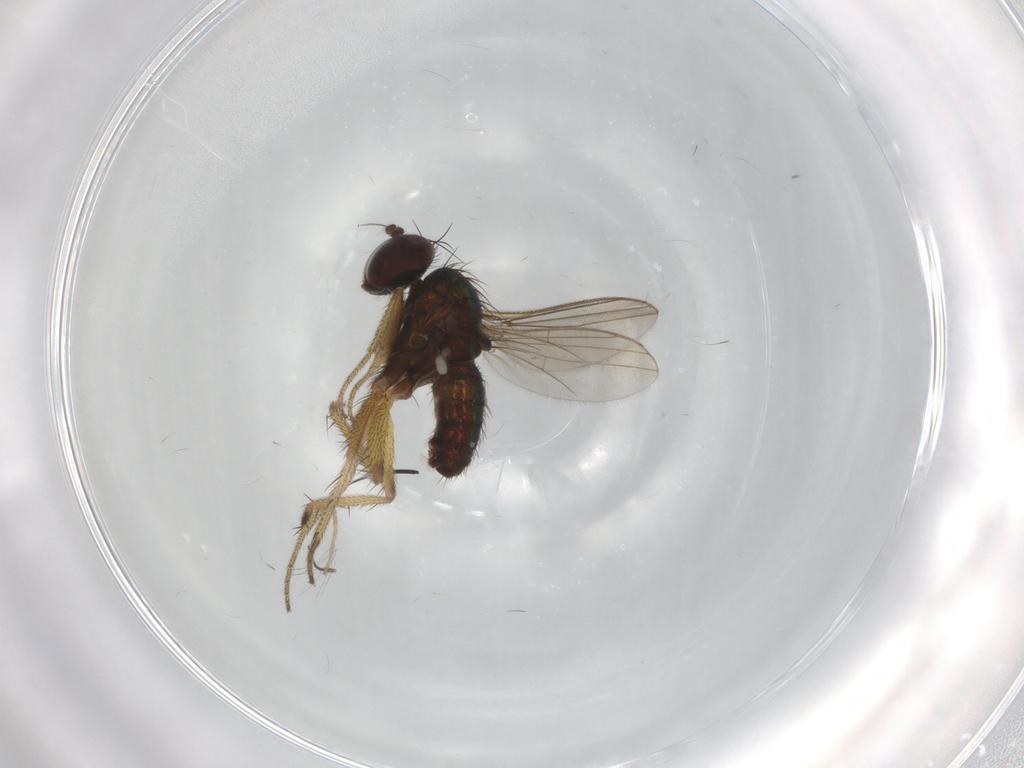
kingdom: Animalia
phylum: Arthropoda
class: Insecta
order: Diptera
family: Chironomidae
